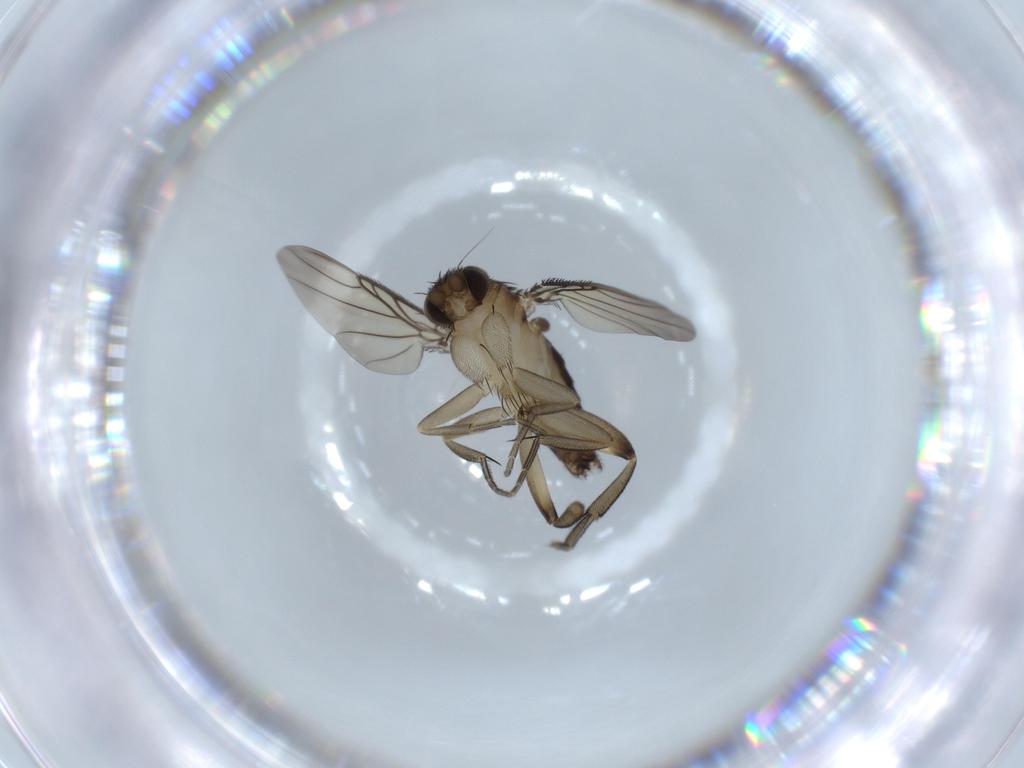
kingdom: Animalia
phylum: Arthropoda
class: Insecta
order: Diptera
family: Phoridae
